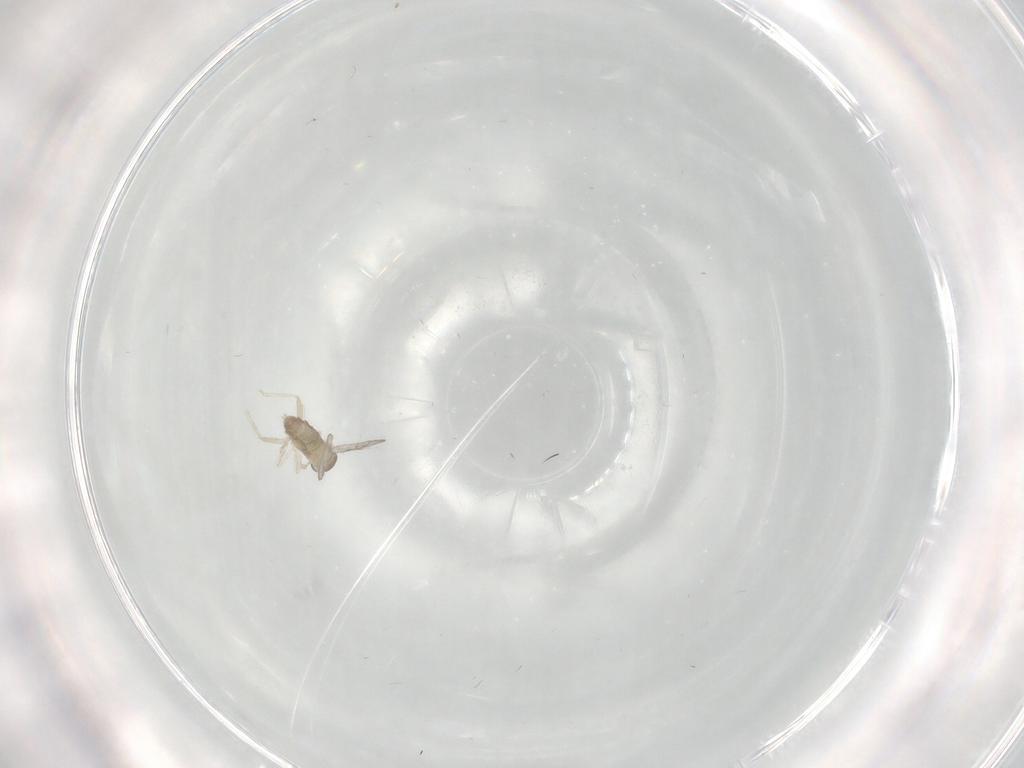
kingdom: Animalia
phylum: Arthropoda
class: Insecta
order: Diptera
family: Cecidomyiidae
